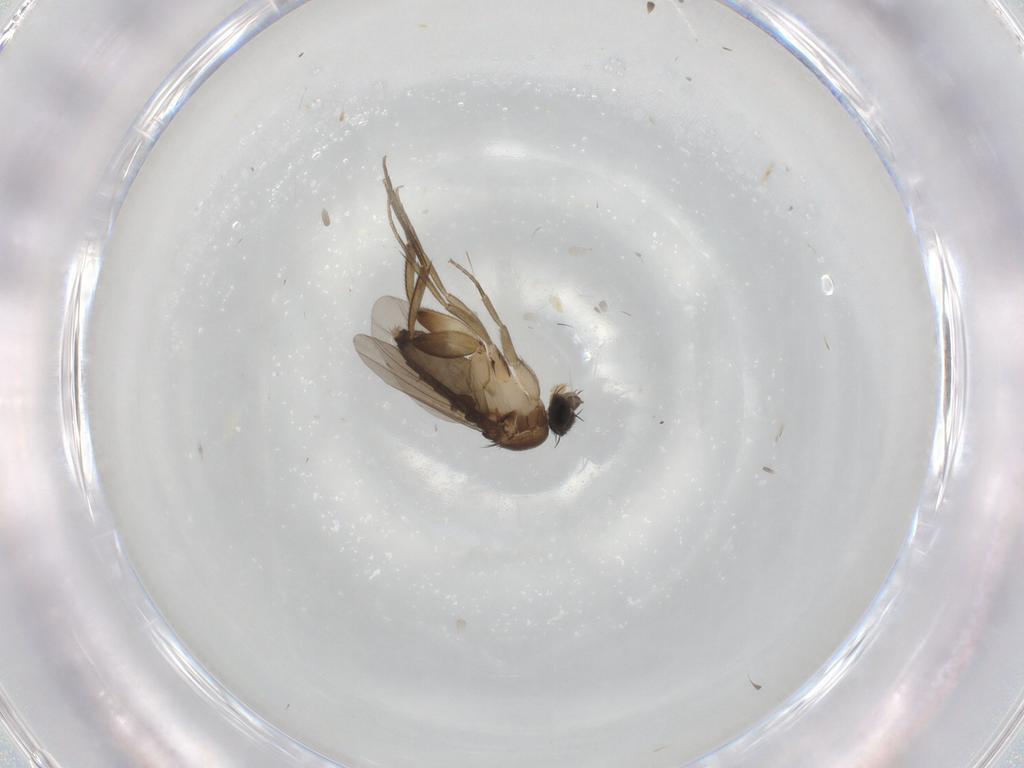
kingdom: Animalia
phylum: Arthropoda
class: Insecta
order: Diptera
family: Phoridae
